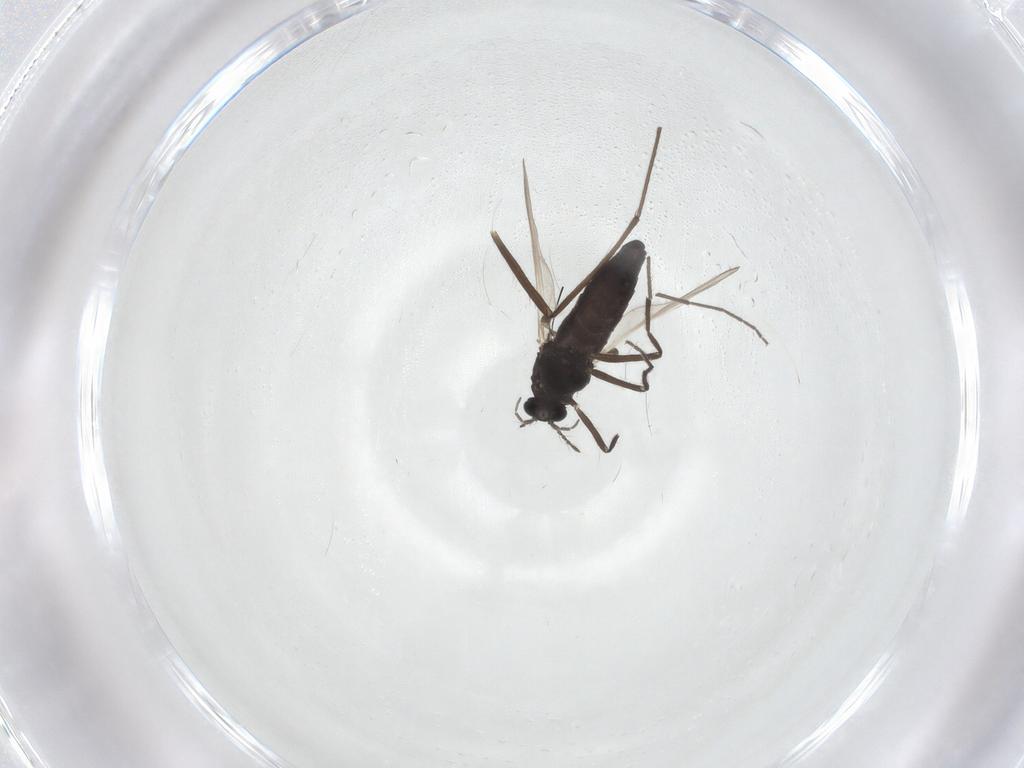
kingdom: Animalia
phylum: Arthropoda
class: Insecta
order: Diptera
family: Chironomidae
